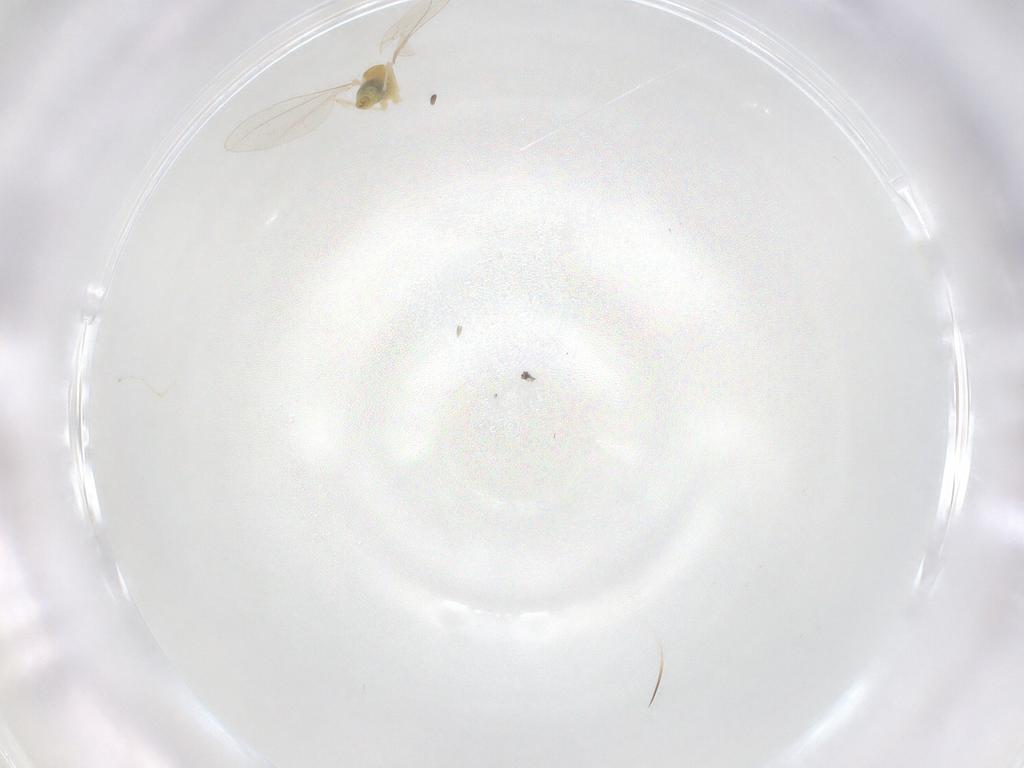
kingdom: Animalia
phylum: Arthropoda
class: Insecta
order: Diptera
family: Cecidomyiidae
